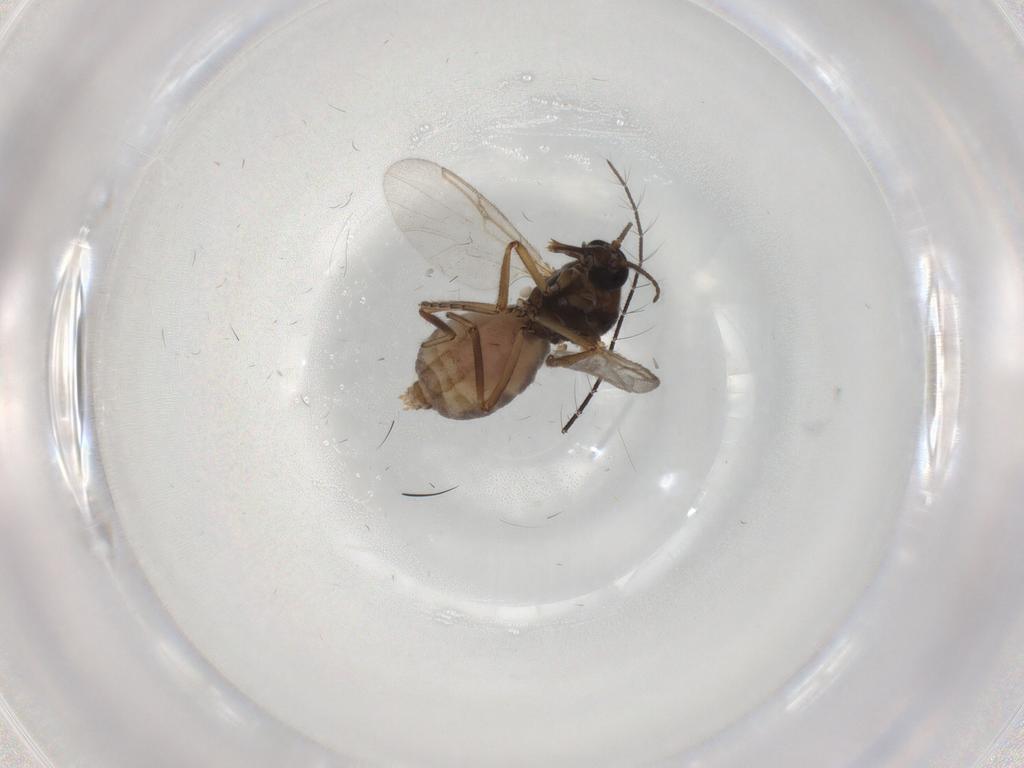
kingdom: Animalia
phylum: Arthropoda
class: Insecta
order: Diptera
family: Ceratopogonidae
